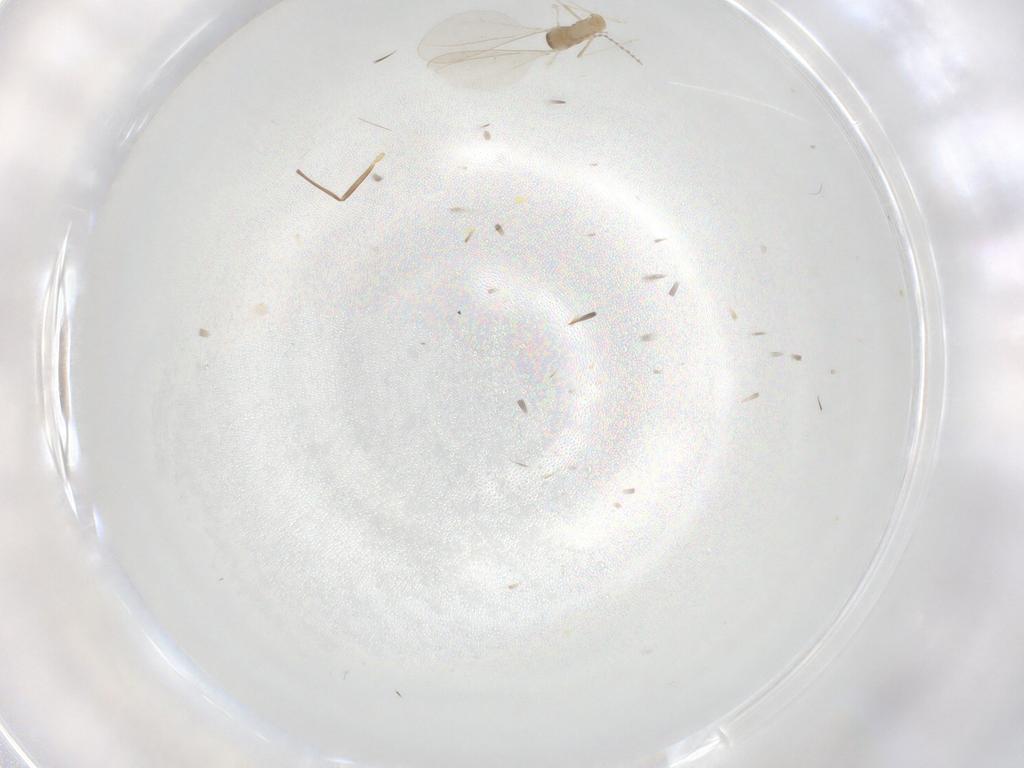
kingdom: Animalia
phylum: Arthropoda
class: Insecta
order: Diptera
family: Cecidomyiidae
